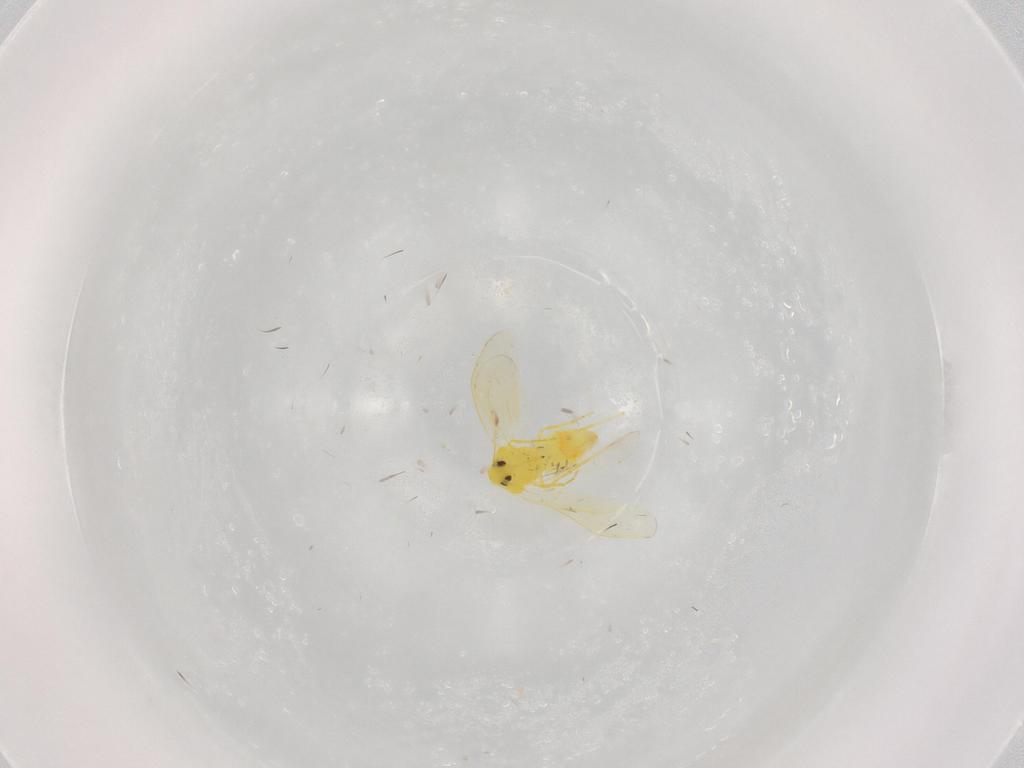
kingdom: Animalia
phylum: Arthropoda
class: Insecta
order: Hemiptera
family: Aleyrodidae
